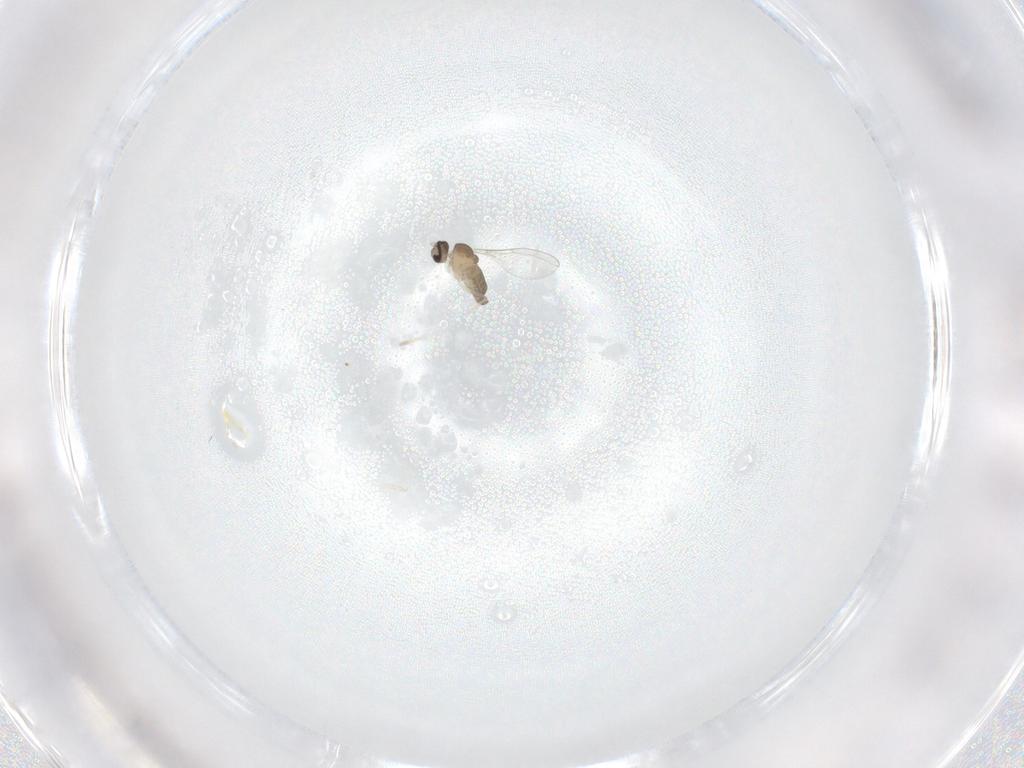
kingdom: Animalia
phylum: Arthropoda
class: Insecta
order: Diptera
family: Cecidomyiidae
